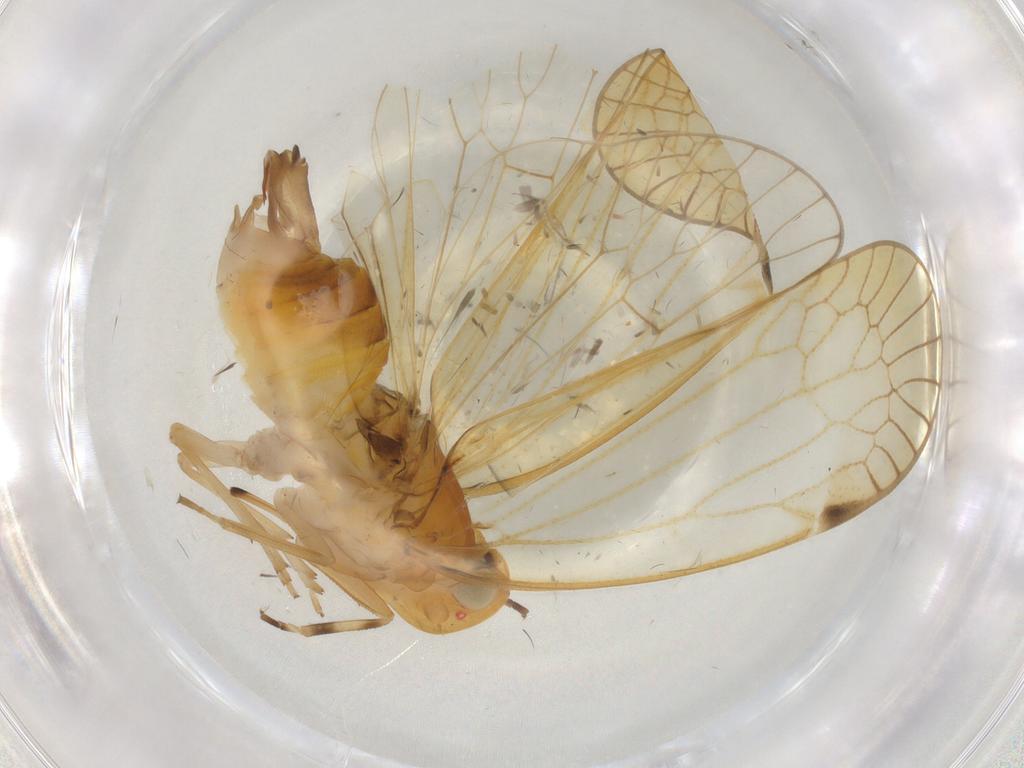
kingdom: Animalia
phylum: Arthropoda
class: Insecta
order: Hemiptera
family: Cixiidae
